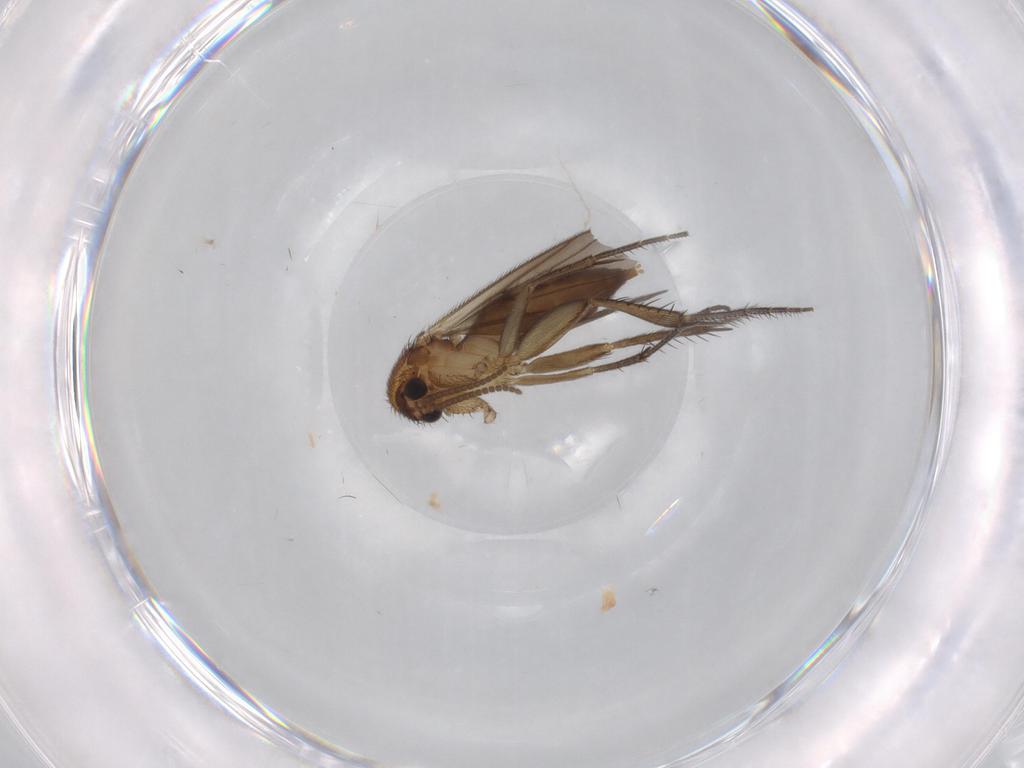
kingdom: Animalia
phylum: Arthropoda
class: Insecta
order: Diptera
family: Mycetophilidae
